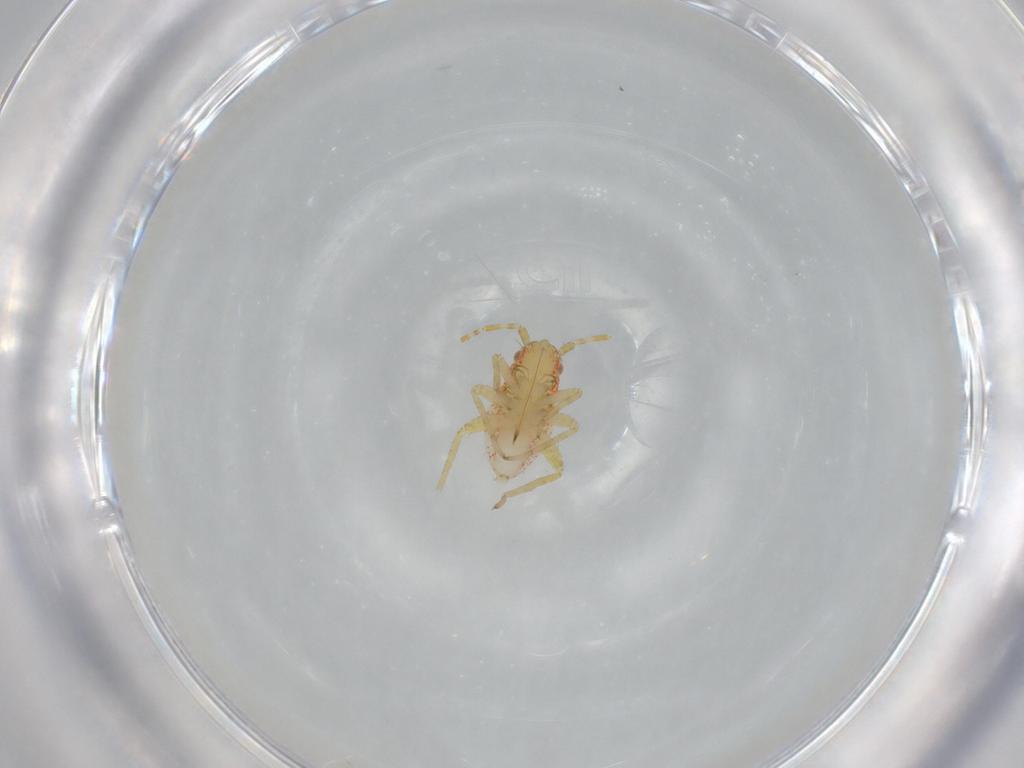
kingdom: Animalia
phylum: Arthropoda
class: Insecta
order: Hemiptera
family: Miridae
